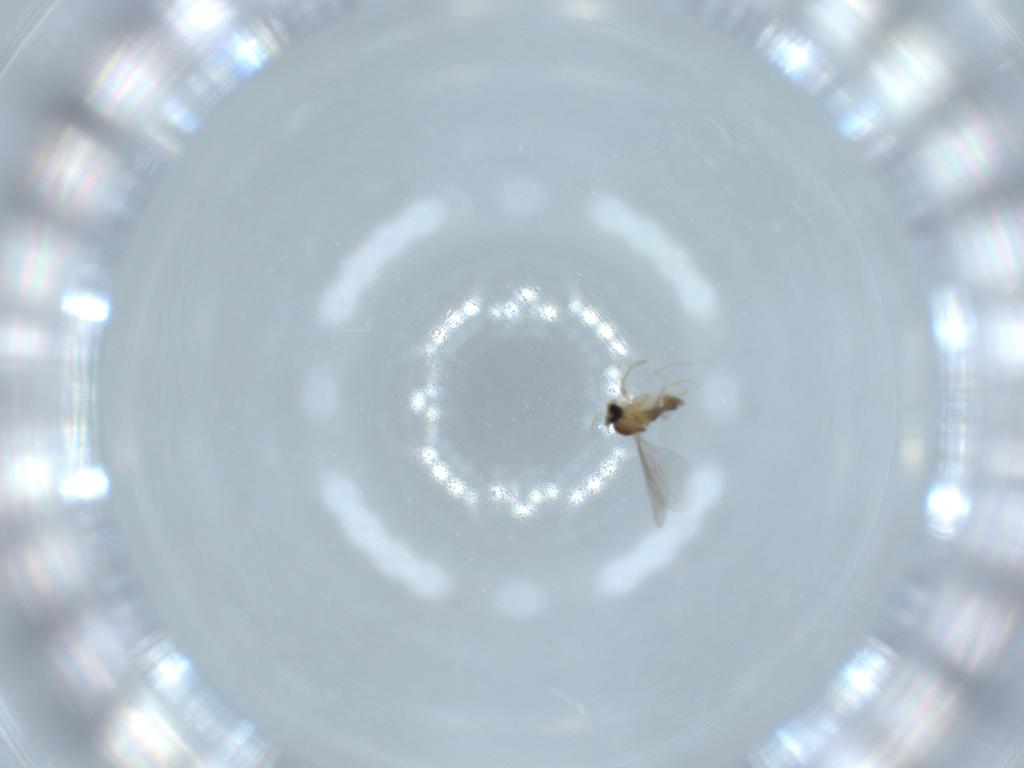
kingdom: Animalia
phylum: Arthropoda
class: Insecta
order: Diptera
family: Cecidomyiidae
